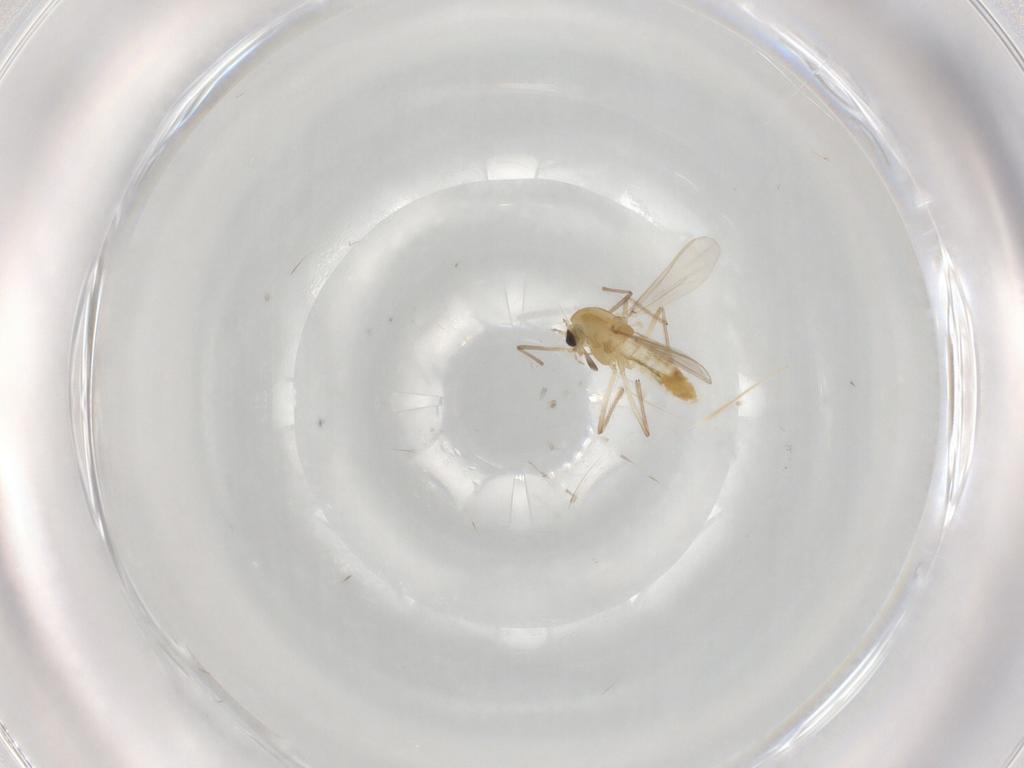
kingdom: Animalia
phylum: Arthropoda
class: Insecta
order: Diptera
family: Chironomidae
